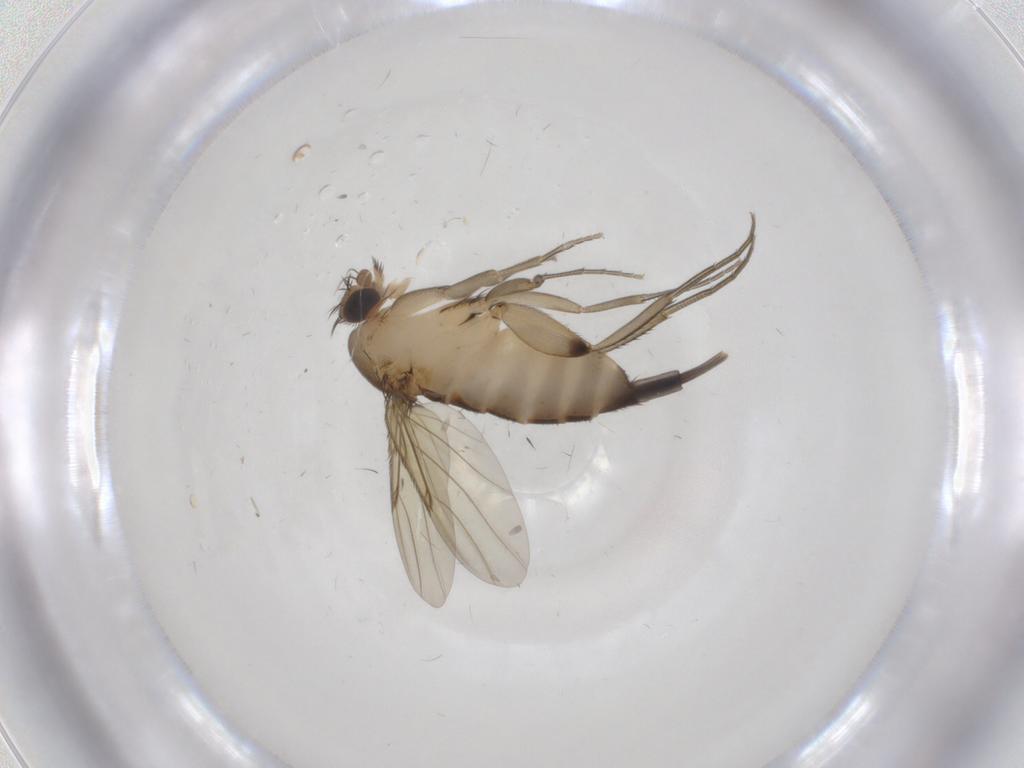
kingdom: Animalia
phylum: Arthropoda
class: Insecta
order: Diptera
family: Phoridae
